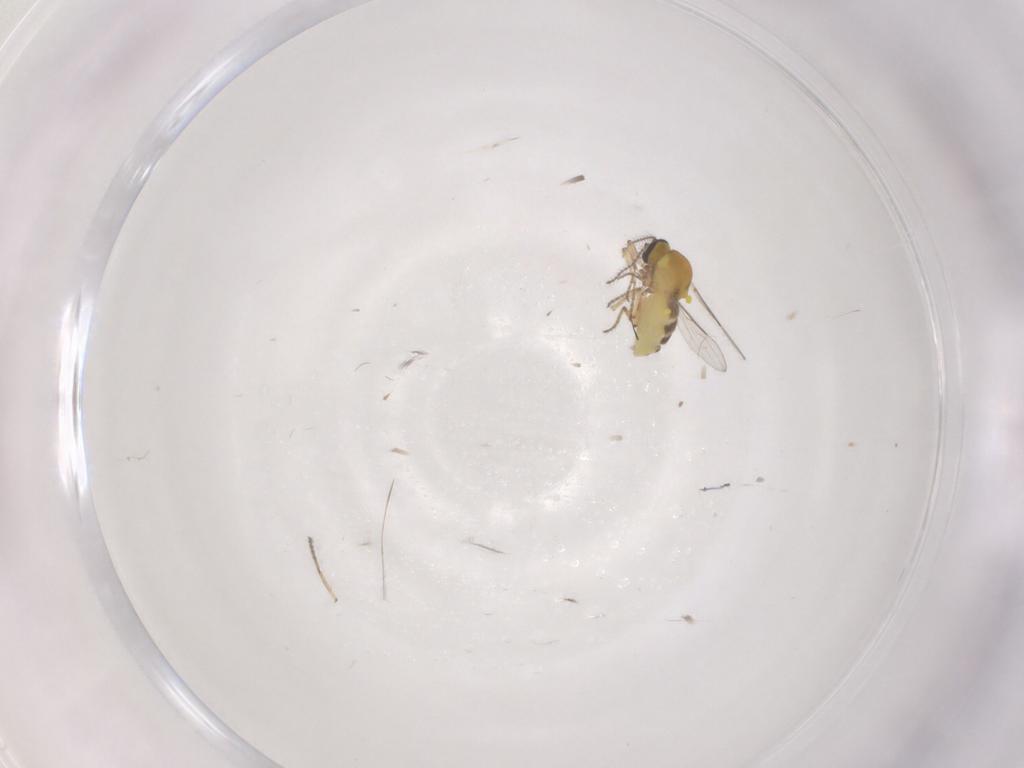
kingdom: Animalia
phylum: Arthropoda
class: Insecta
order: Diptera
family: Ceratopogonidae
